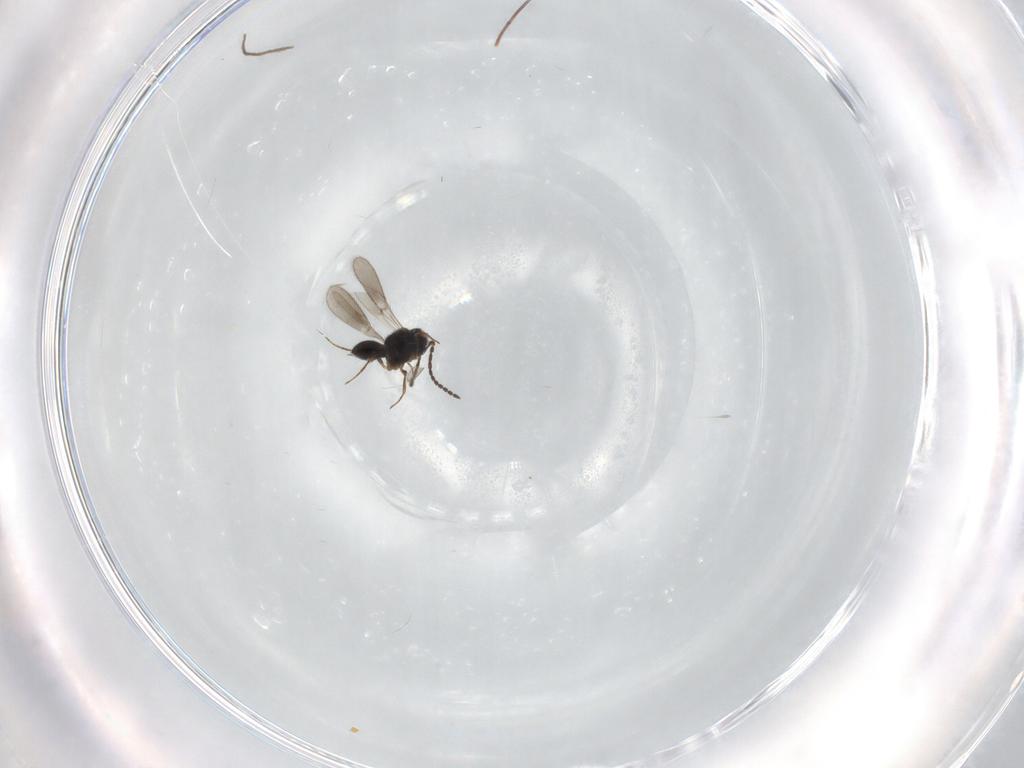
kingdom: Animalia
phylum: Arthropoda
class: Insecta
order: Hymenoptera
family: Scelionidae
